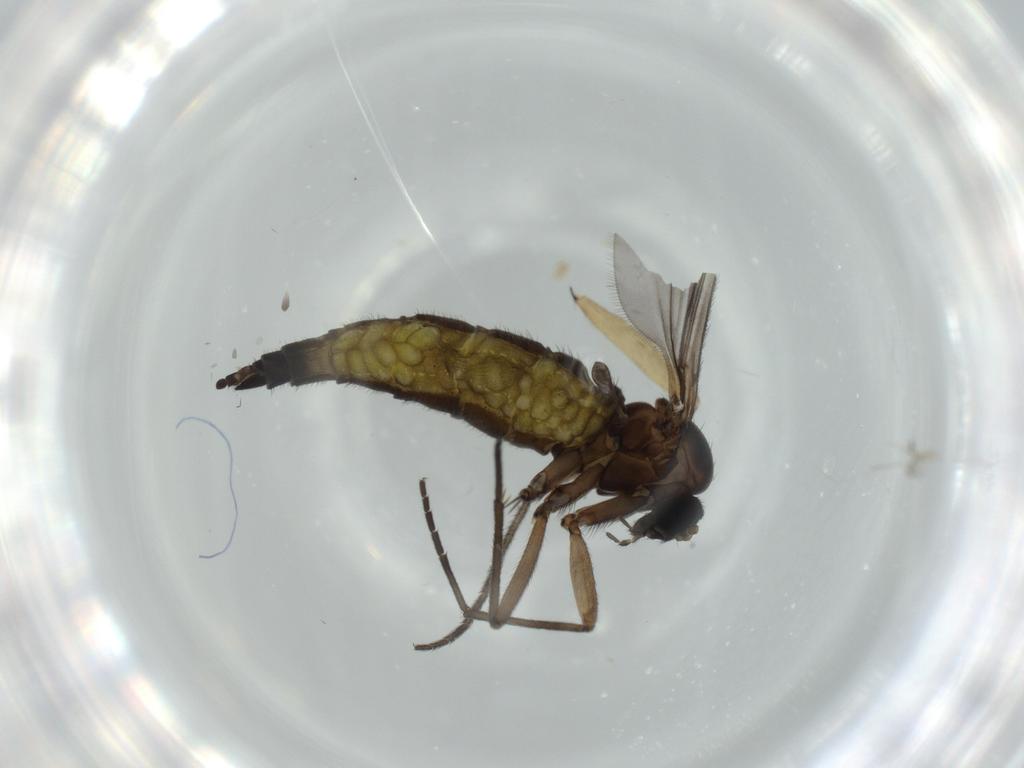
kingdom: Animalia
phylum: Arthropoda
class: Insecta
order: Diptera
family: Sciaridae
